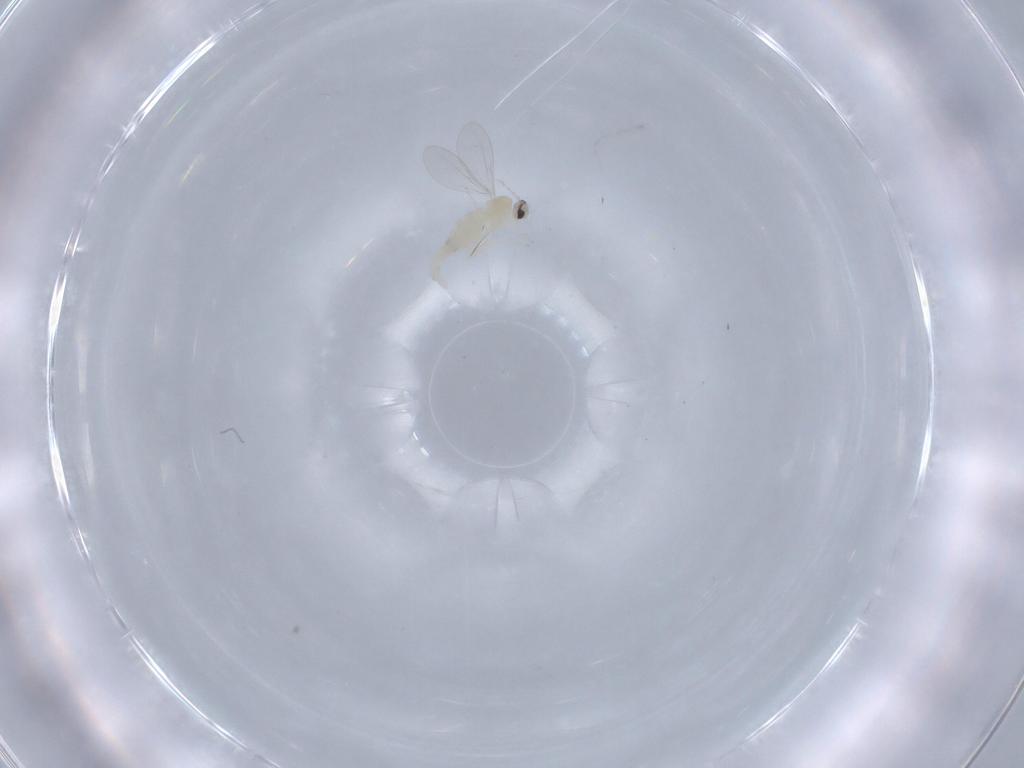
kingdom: Animalia
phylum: Arthropoda
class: Insecta
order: Diptera
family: Cecidomyiidae
